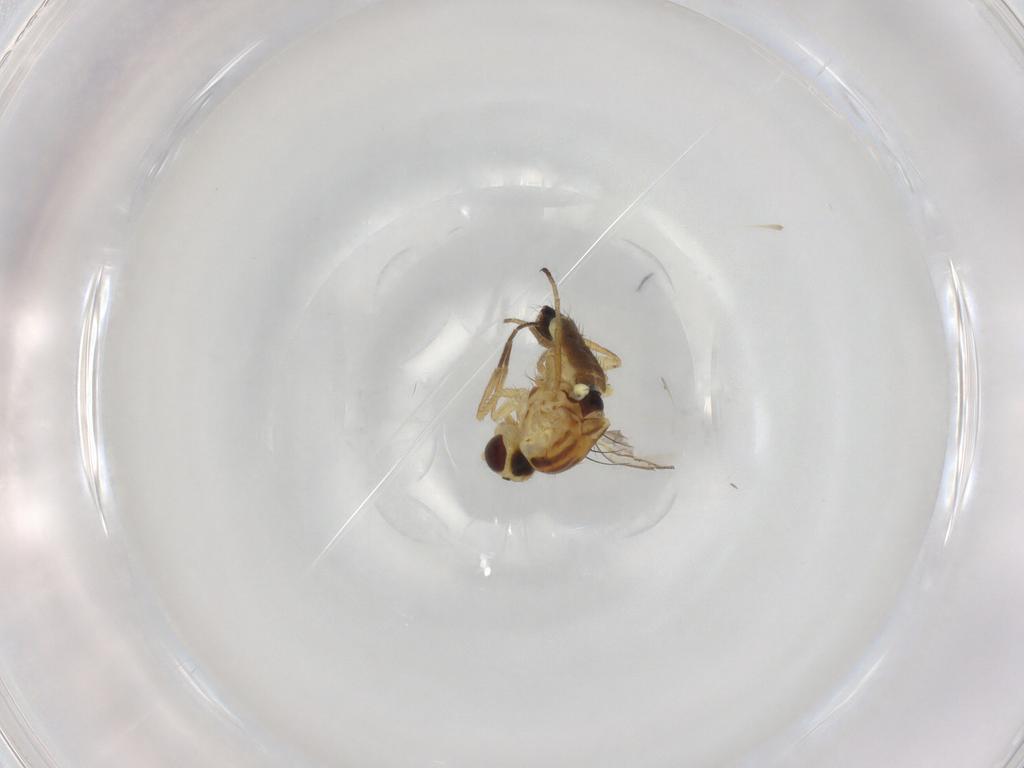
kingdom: Animalia
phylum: Arthropoda
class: Insecta
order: Diptera
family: Agromyzidae
